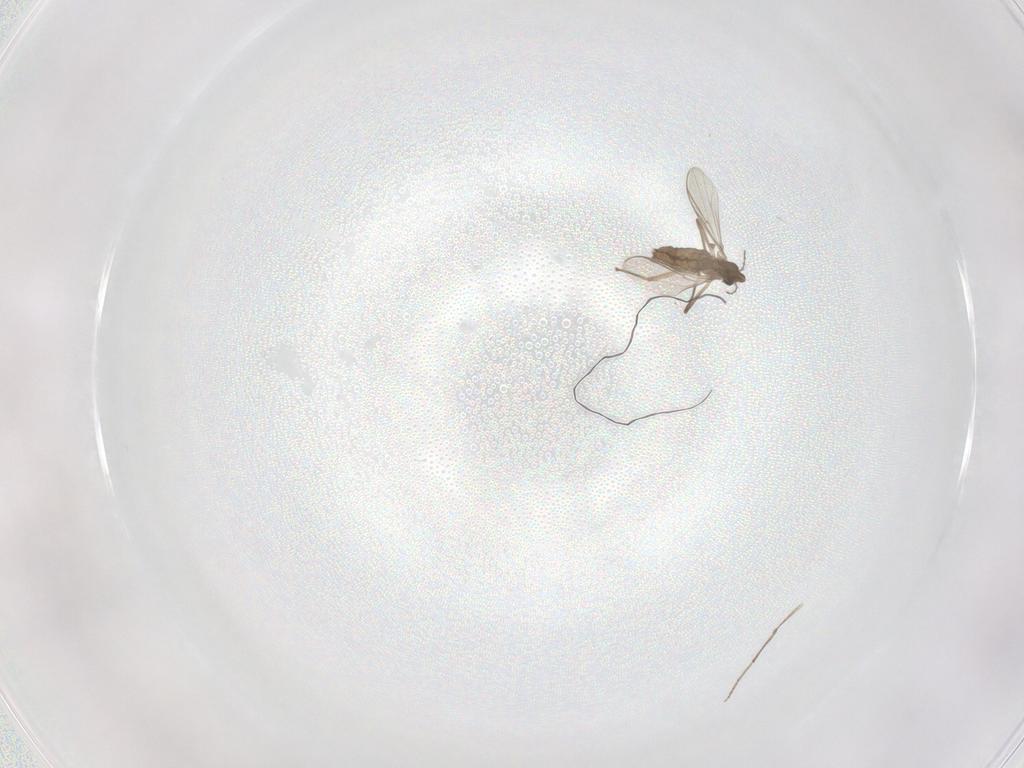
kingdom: Animalia
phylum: Arthropoda
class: Insecta
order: Diptera
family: Chironomidae
